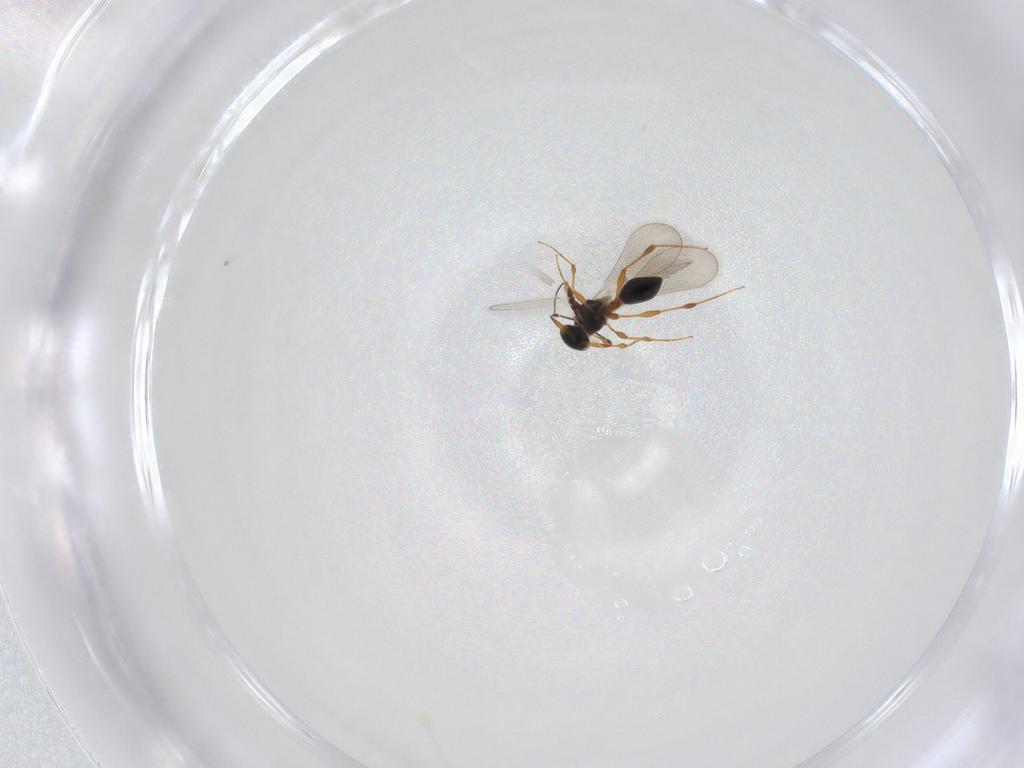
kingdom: Animalia
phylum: Arthropoda
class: Insecta
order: Hymenoptera
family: Platygastridae
